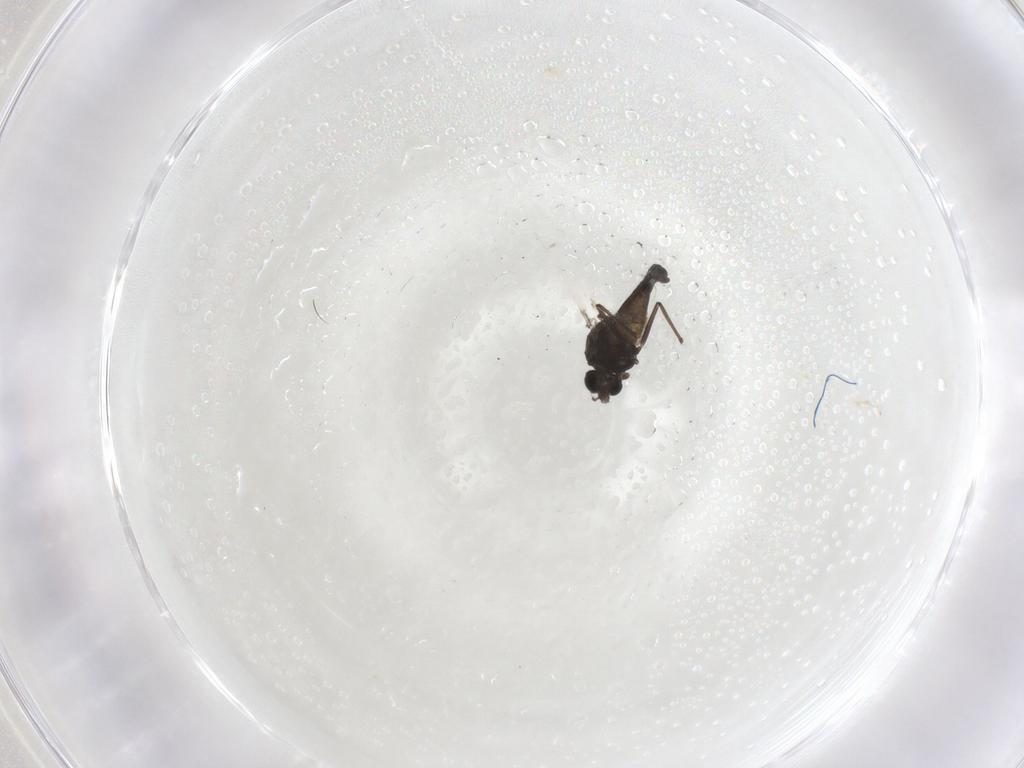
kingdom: Animalia
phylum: Arthropoda
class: Insecta
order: Diptera
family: Chironomidae
